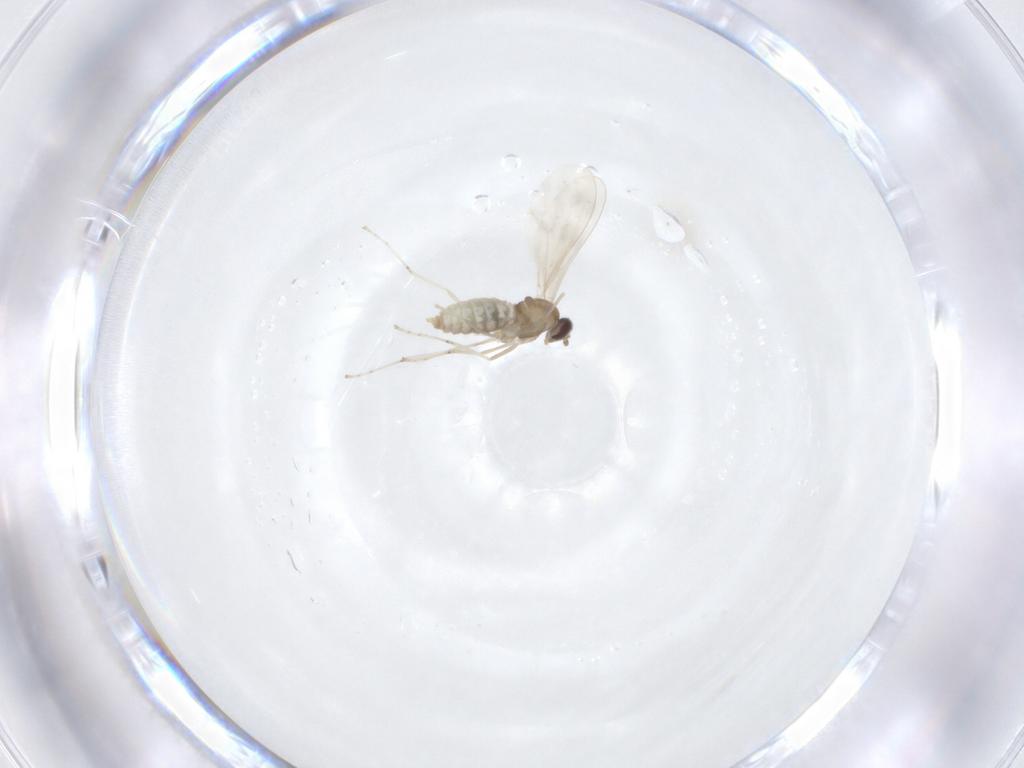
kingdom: Animalia
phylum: Arthropoda
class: Insecta
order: Diptera
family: Cecidomyiidae
